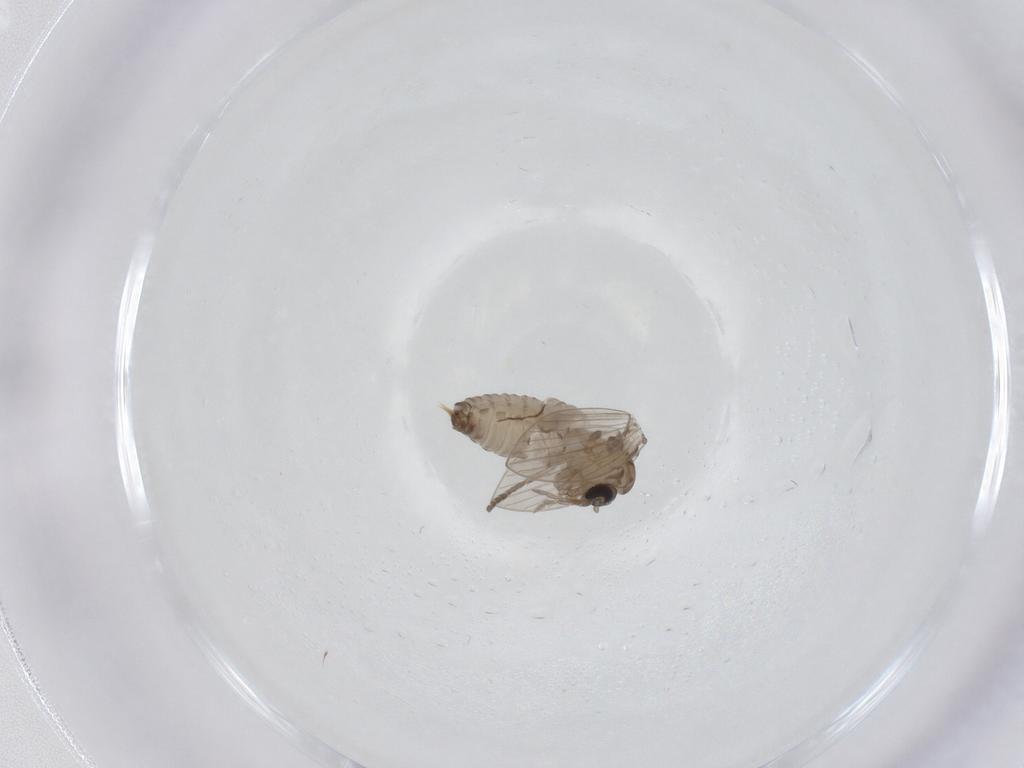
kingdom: Animalia
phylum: Arthropoda
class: Insecta
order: Diptera
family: Psychodidae
